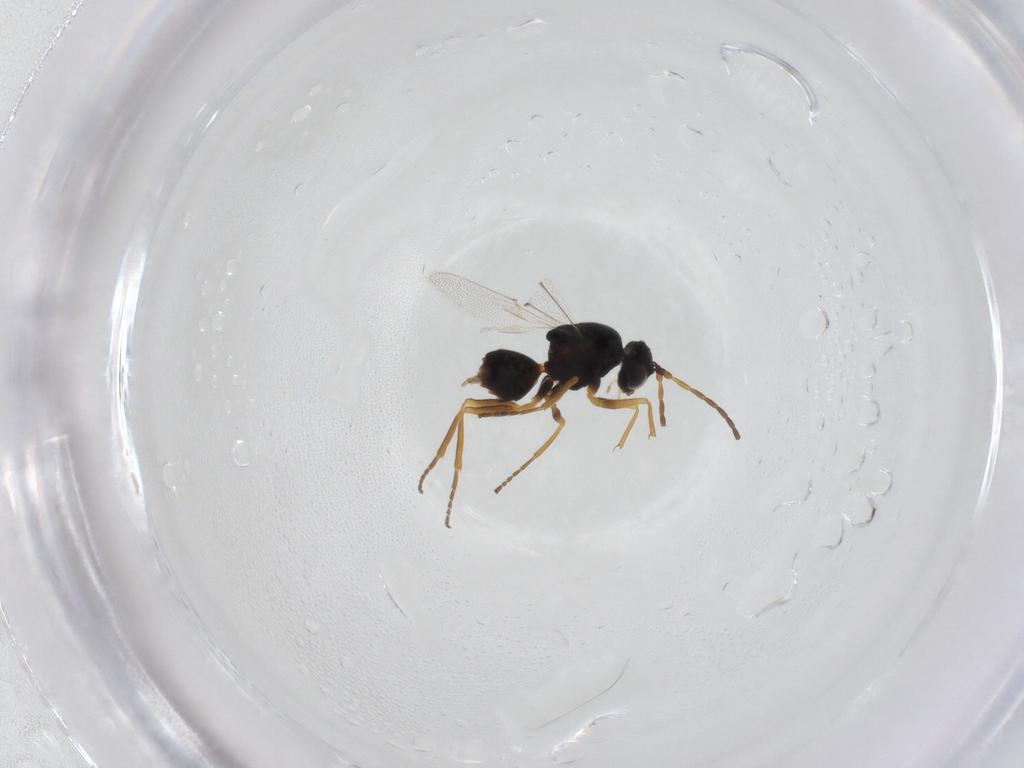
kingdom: Animalia
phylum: Arthropoda
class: Insecta
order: Hymenoptera
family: Cynipidae
